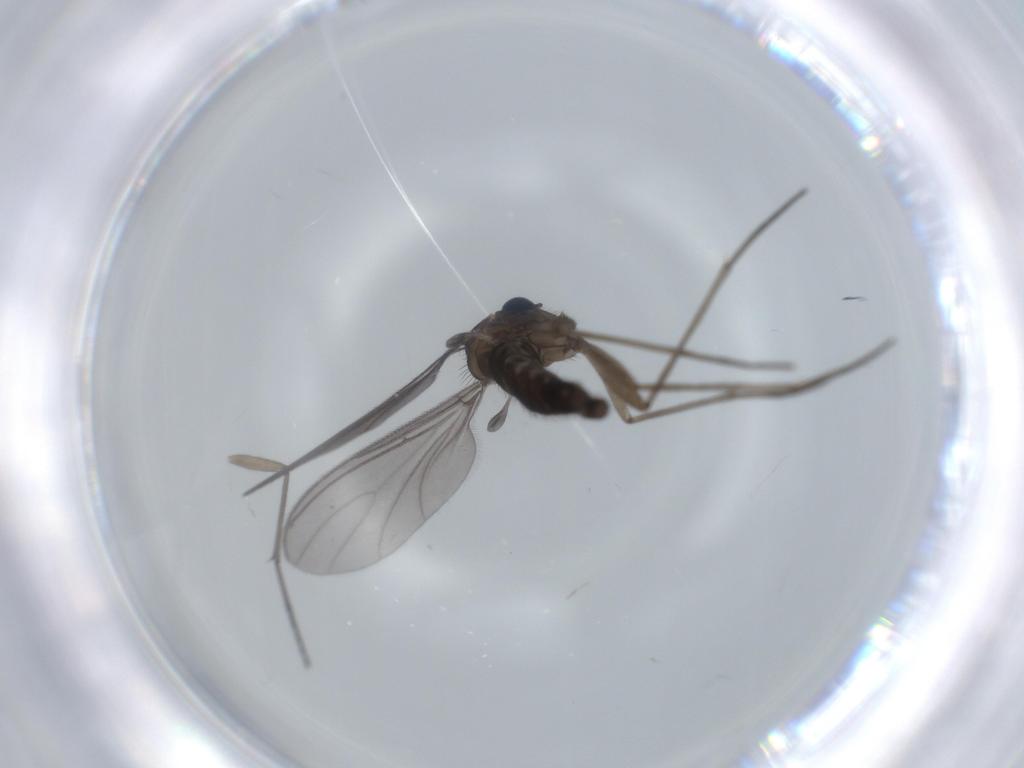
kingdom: Animalia
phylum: Arthropoda
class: Insecta
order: Diptera
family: Sciaridae
